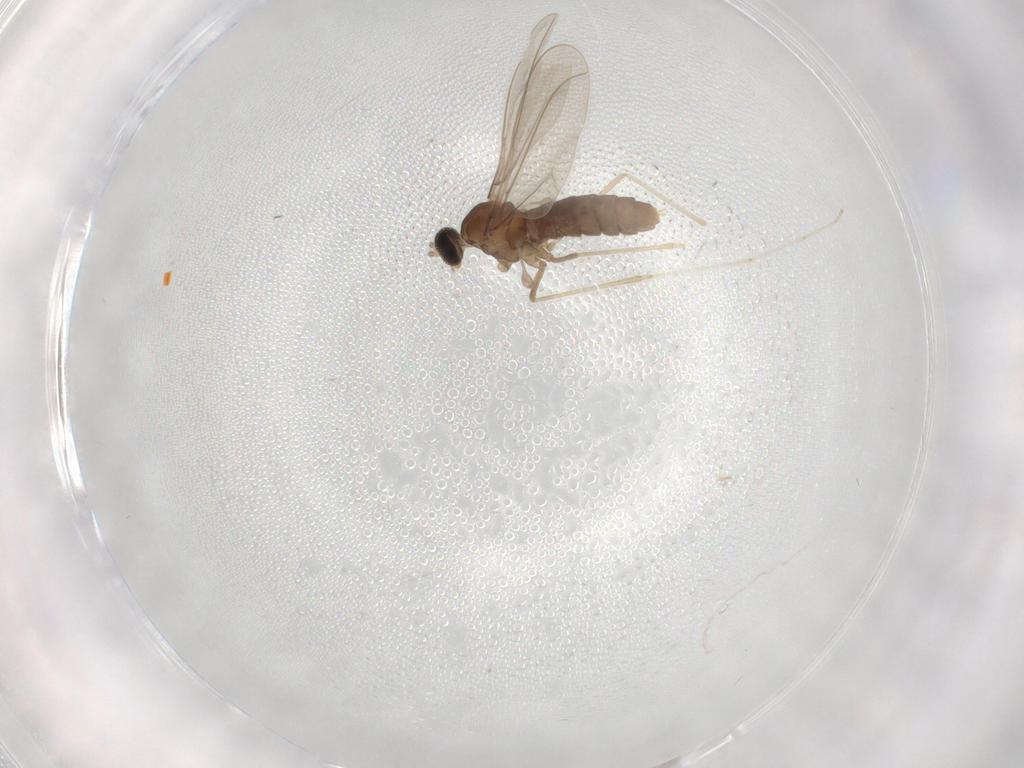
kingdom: Animalia
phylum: Arthropoda
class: Insecta
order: Diptera
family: Cecidomyiidae
